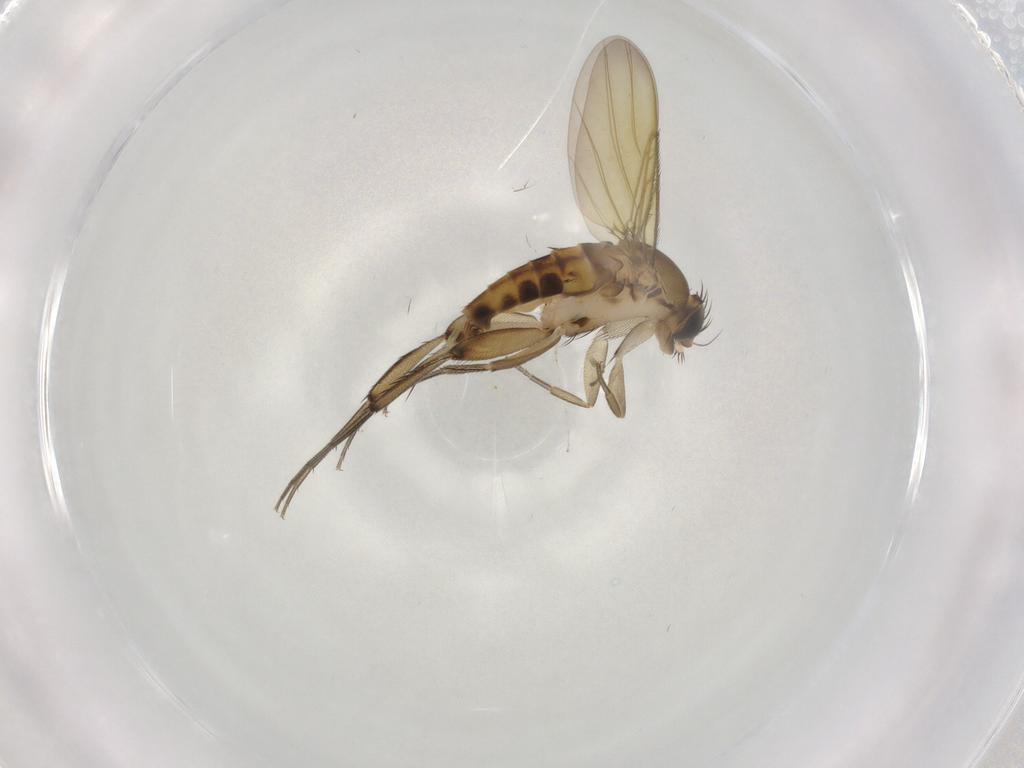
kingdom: Animalia
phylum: Arthropoda
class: Insecta
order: Diptera
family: Phoridae
